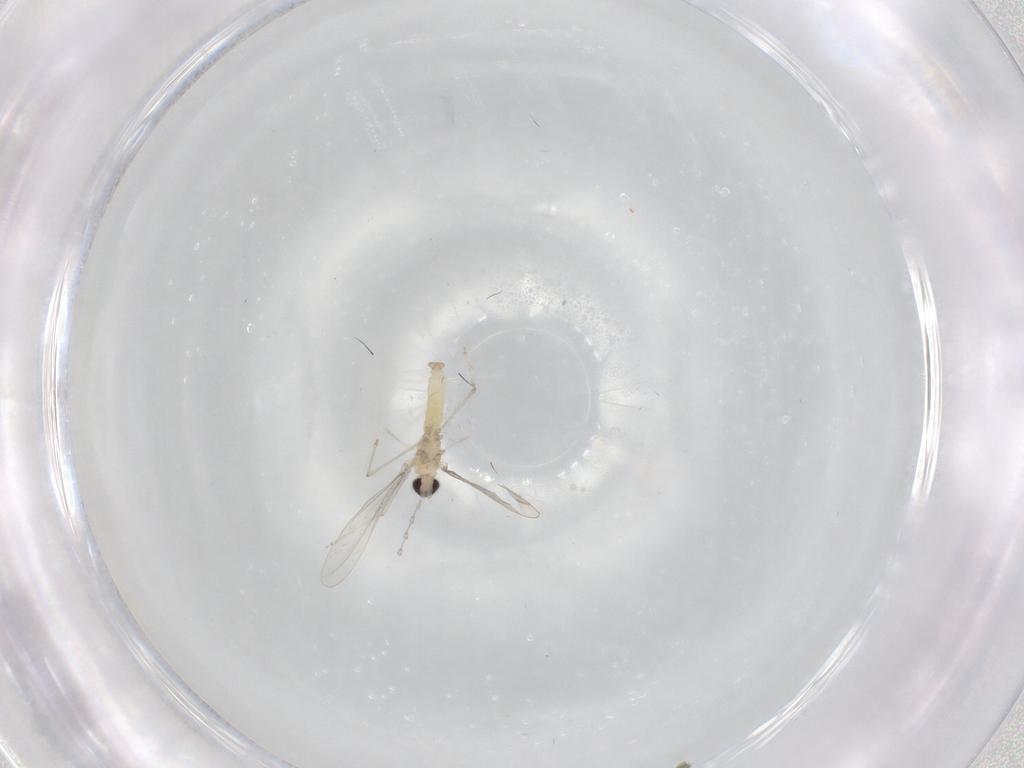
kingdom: Animalia
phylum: Arthropoda
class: Insecta
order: Diptera
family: Cecidomyiidae
